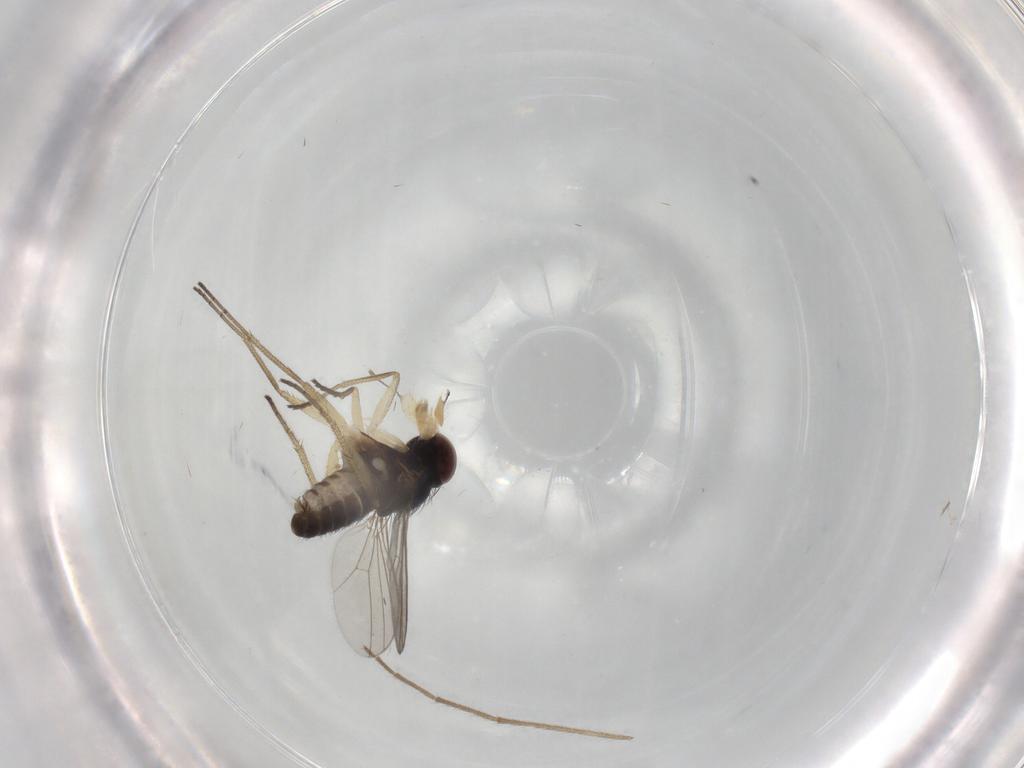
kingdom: Animalia
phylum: Arthropoda
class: Insecta
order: Diptera
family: Dolichopodidae
